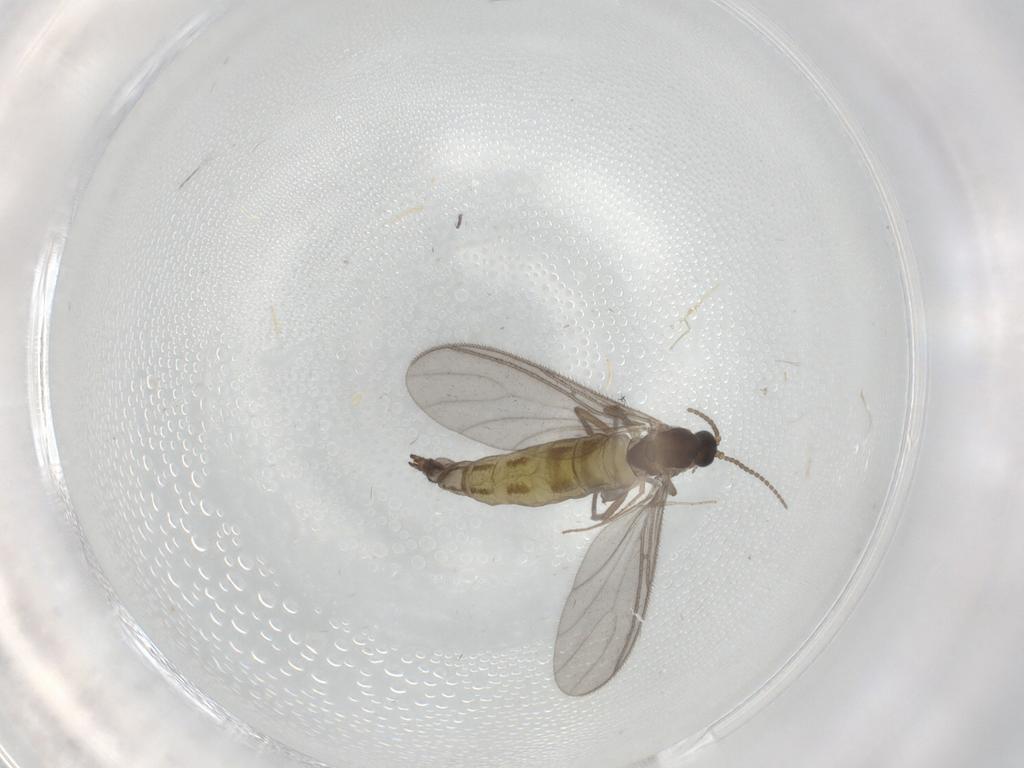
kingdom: Animalia
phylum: Arthropoda
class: Insecta
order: Diptera
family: Sciaridae
